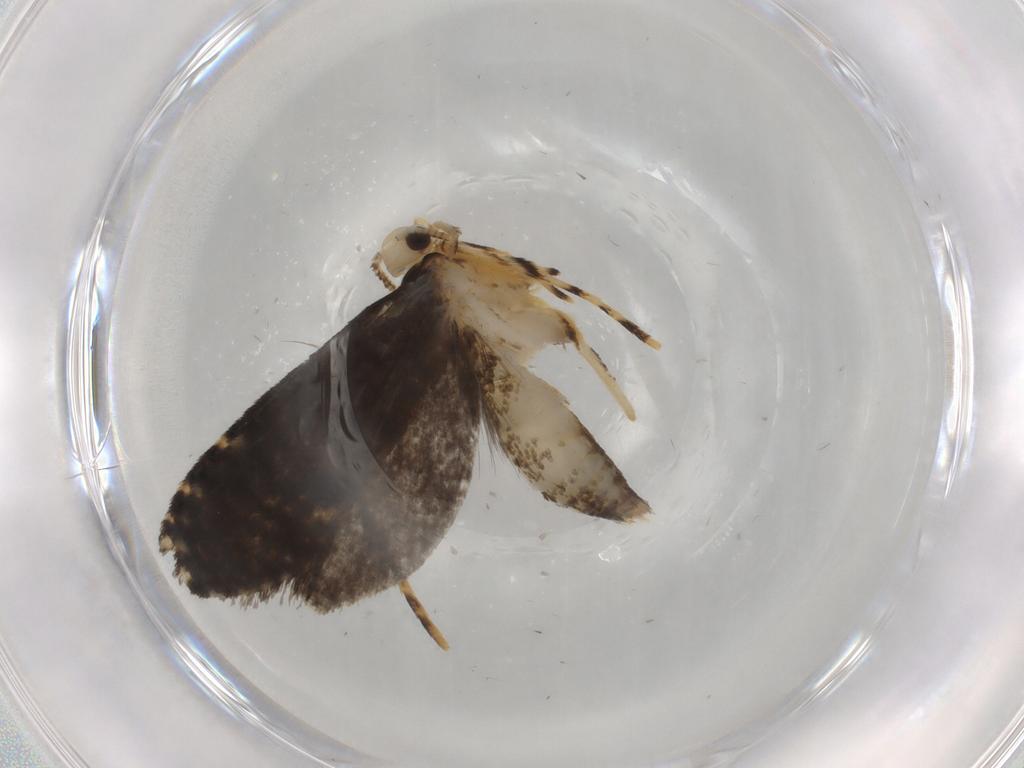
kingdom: Animalia
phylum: Arthropoda
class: Insecta
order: Lepidoptera
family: Tineidae
